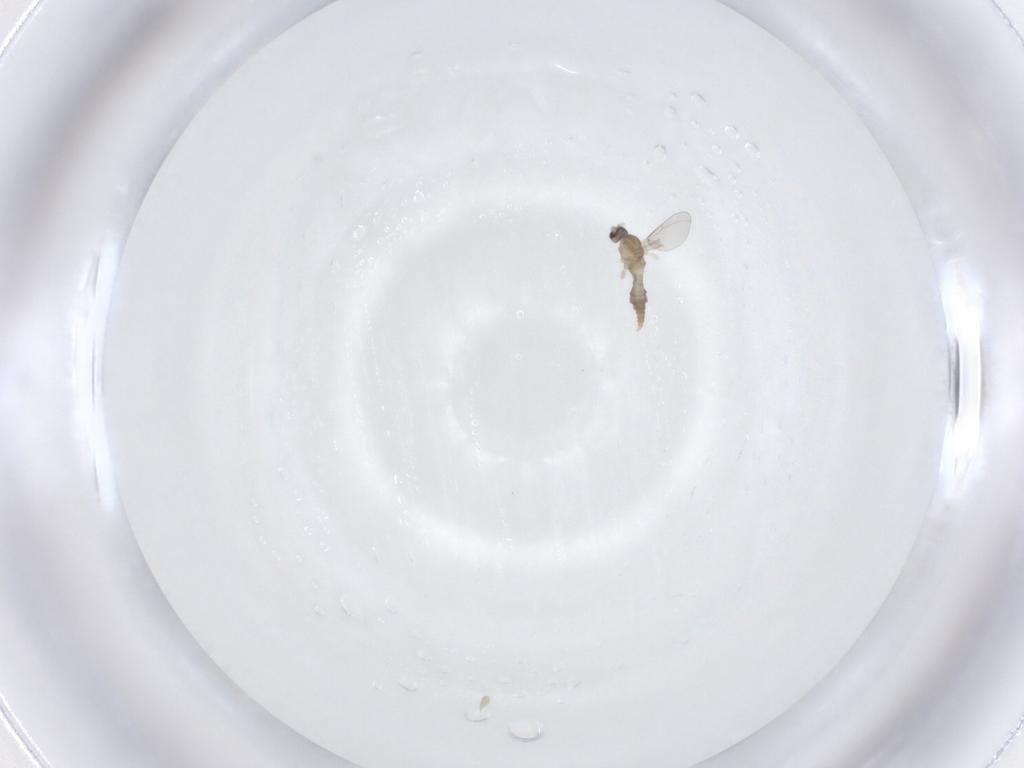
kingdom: Animalia
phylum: Arthropoda
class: Insecta
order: Diptera
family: Cecidomyiidae
